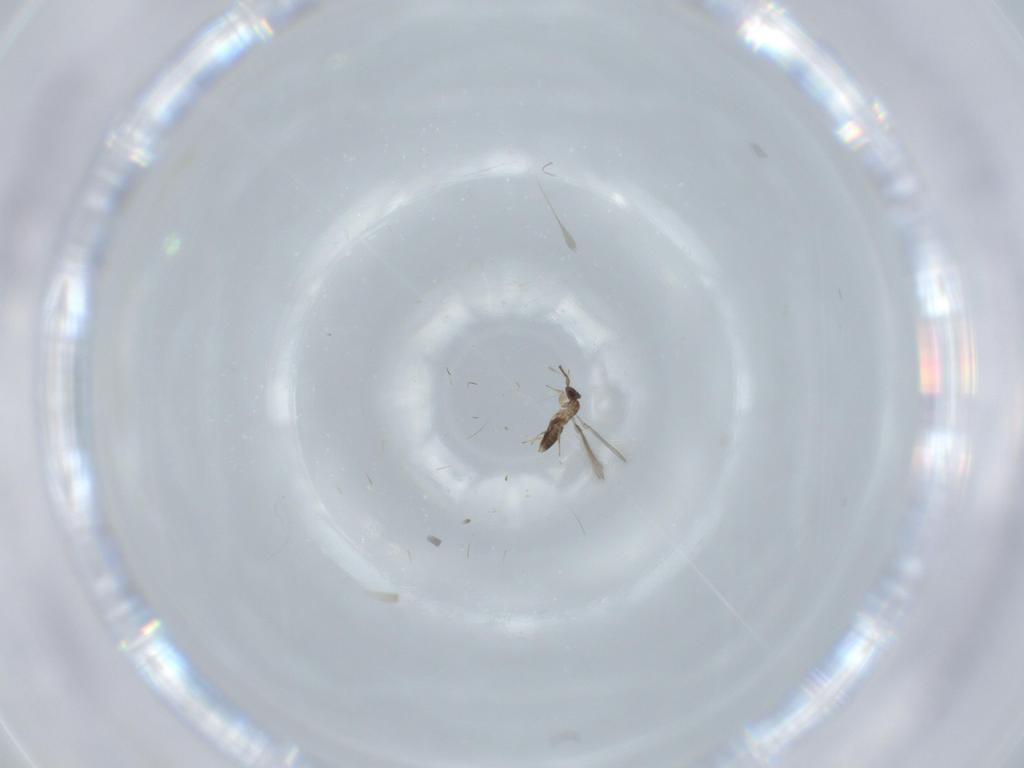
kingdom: Animalia
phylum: Arthropoda
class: Insecta
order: Hymenoptera
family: Mymaridae
